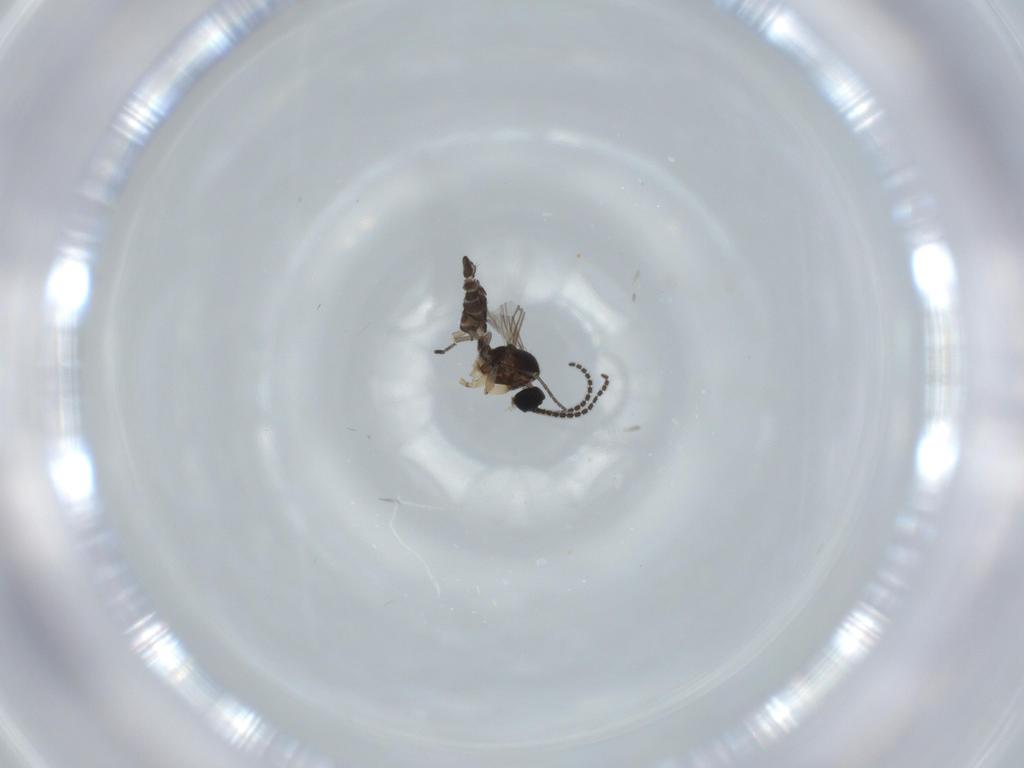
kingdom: Animalia
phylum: Arthropoda
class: Insecta
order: Diptera
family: Sciaridae
